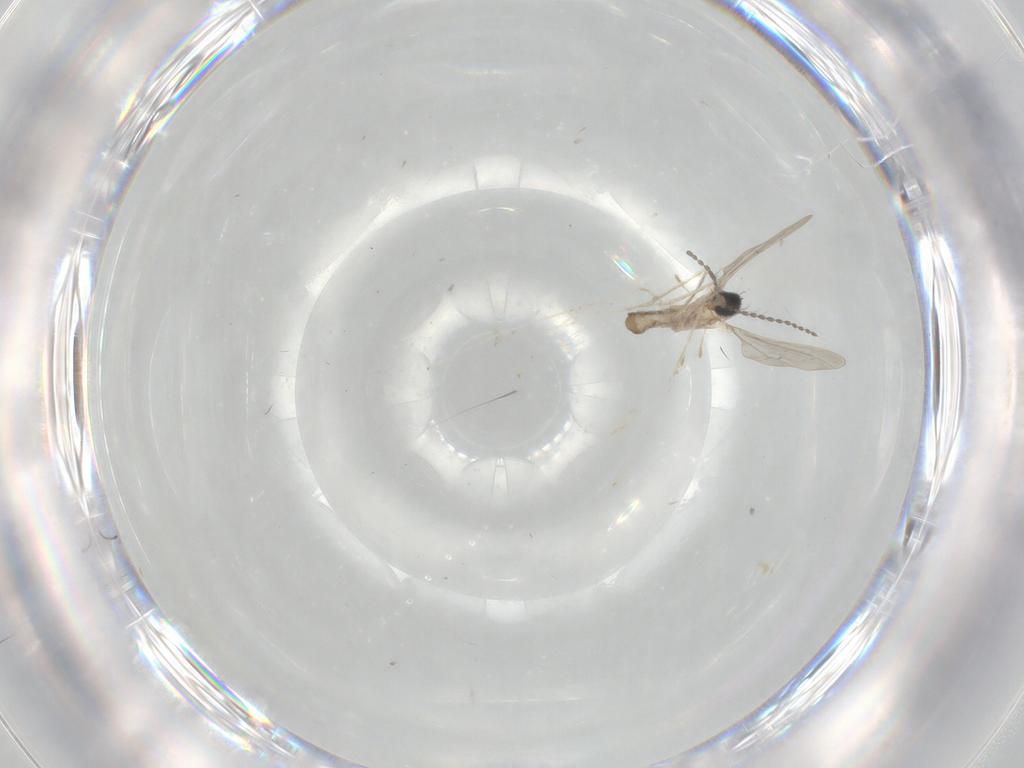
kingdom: Animalia
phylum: Arthropoda
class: Insecta
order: Diptera
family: Cecidomyiidae
